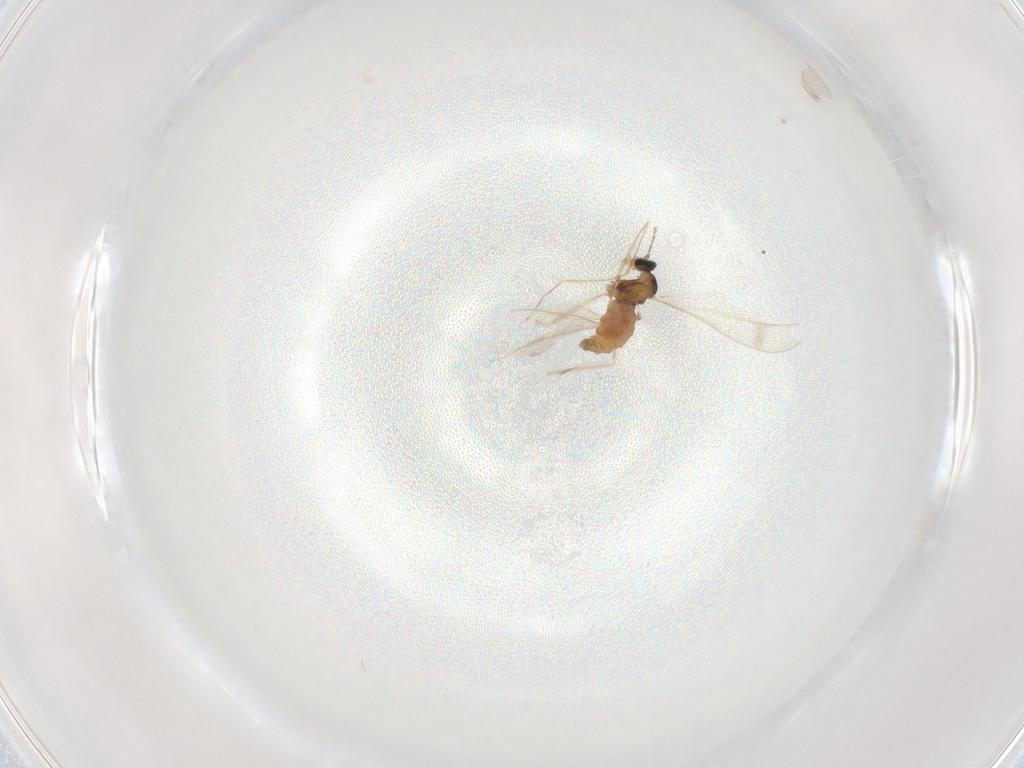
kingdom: Animalia
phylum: Arthropoda
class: Insecta
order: Diptera
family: Cecidomyiidae
